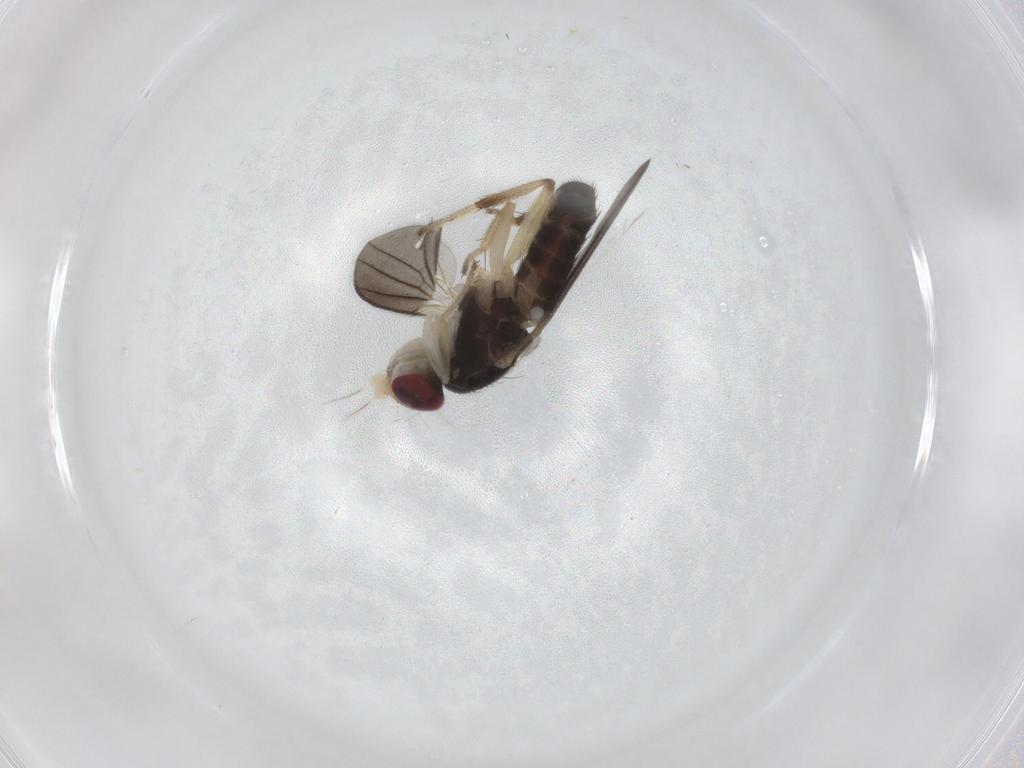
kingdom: Animalia
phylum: Arthropoda
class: Insecta
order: Diptera
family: Clusiidae
